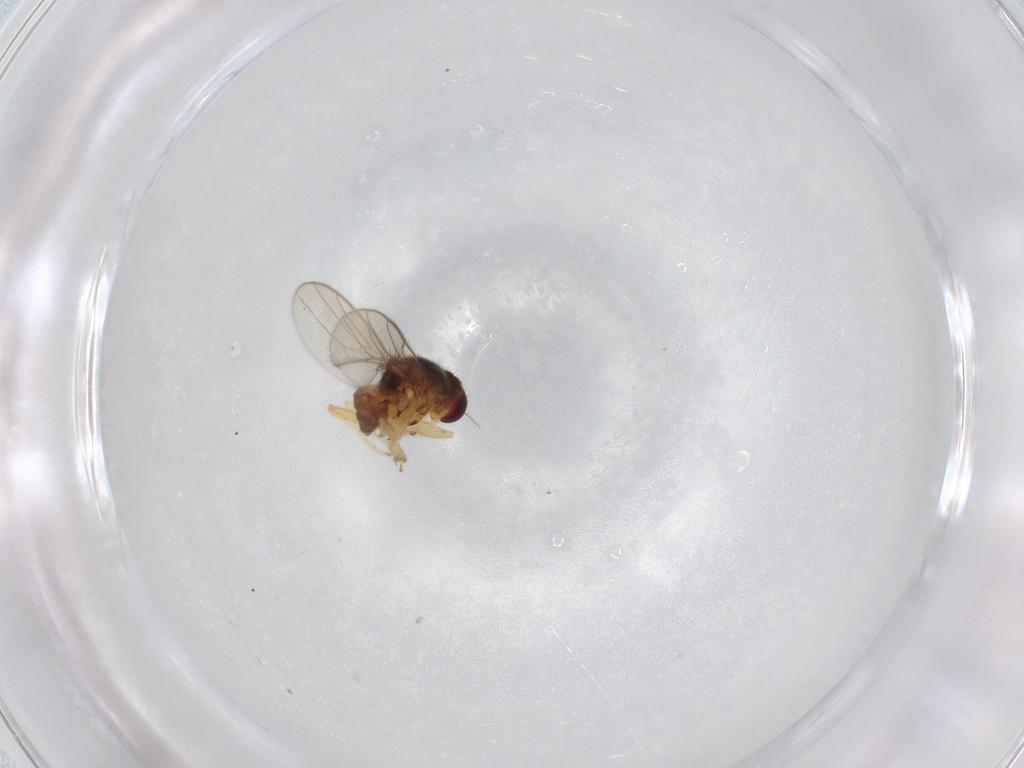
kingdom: Animalia
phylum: Arthropoda
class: Insecta
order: Diptera
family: Chloropidae
